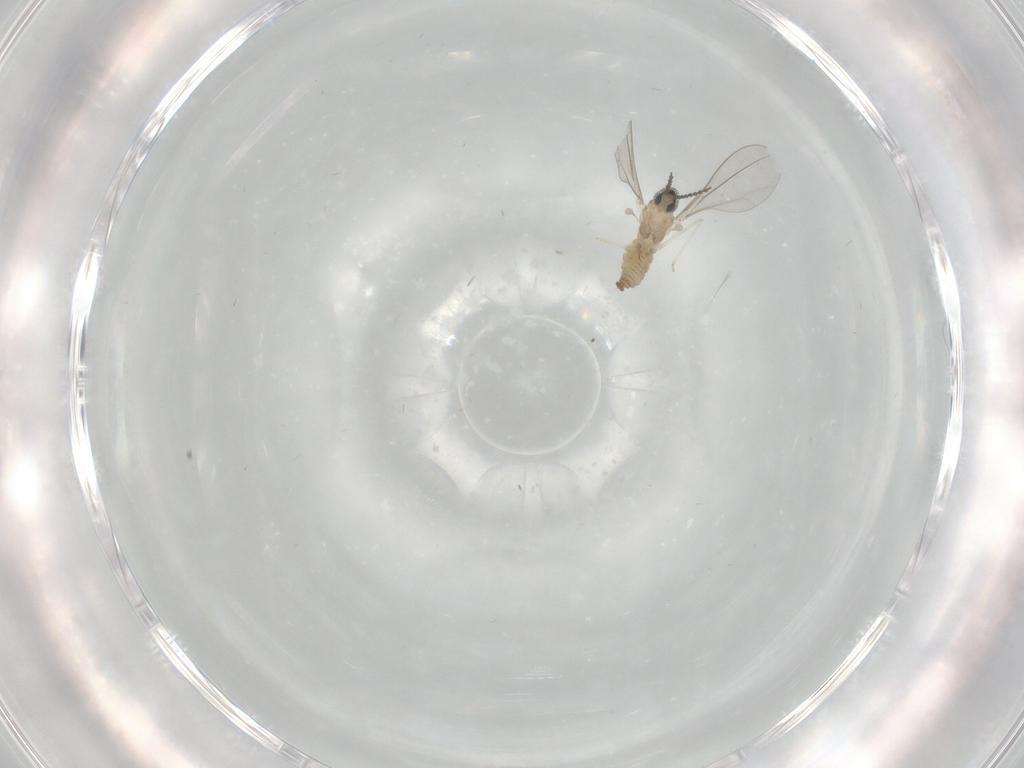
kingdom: Animalia
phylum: Arthropoda
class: Insecta
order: Diptera
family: Cecidomyiidae
